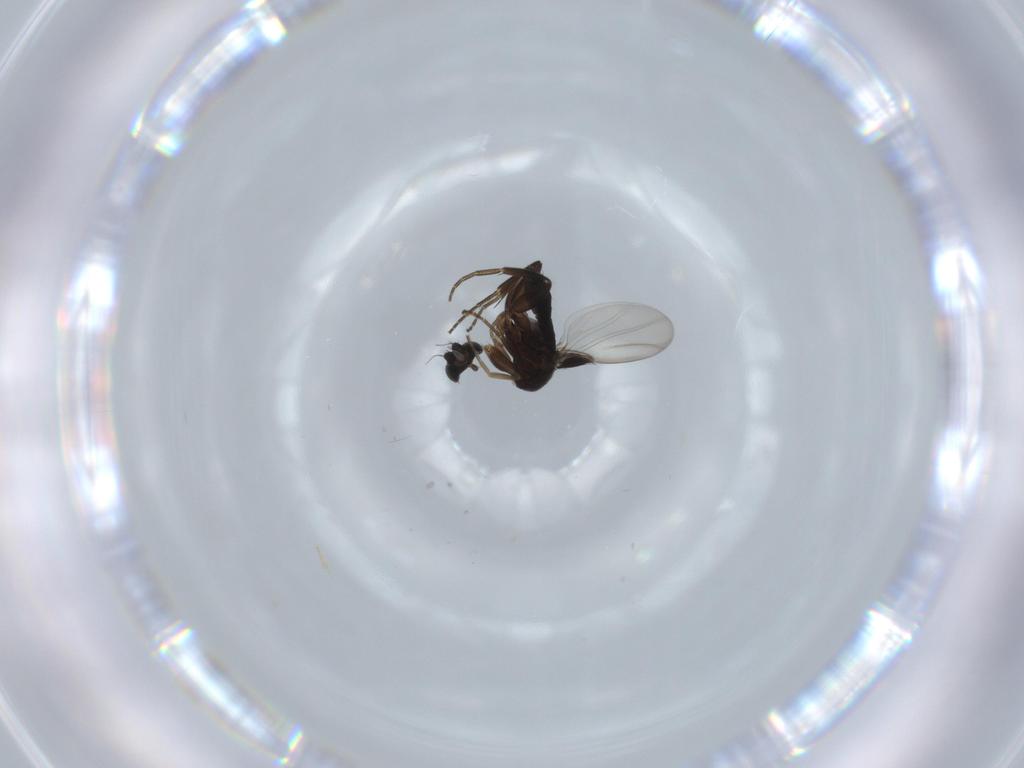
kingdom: Animalia
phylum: Arthropoda
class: Insecta
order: Diptera
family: Phoridae
